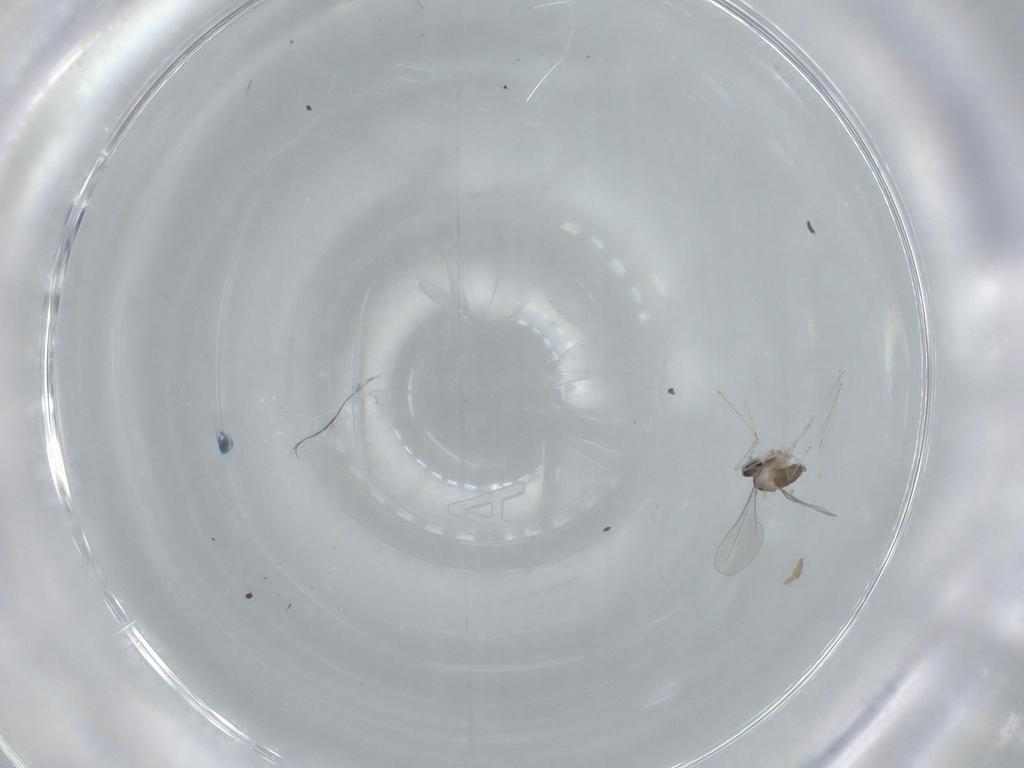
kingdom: Animalia
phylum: Arthropoda
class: Insecta
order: Diptera
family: Cecidomyiidae
